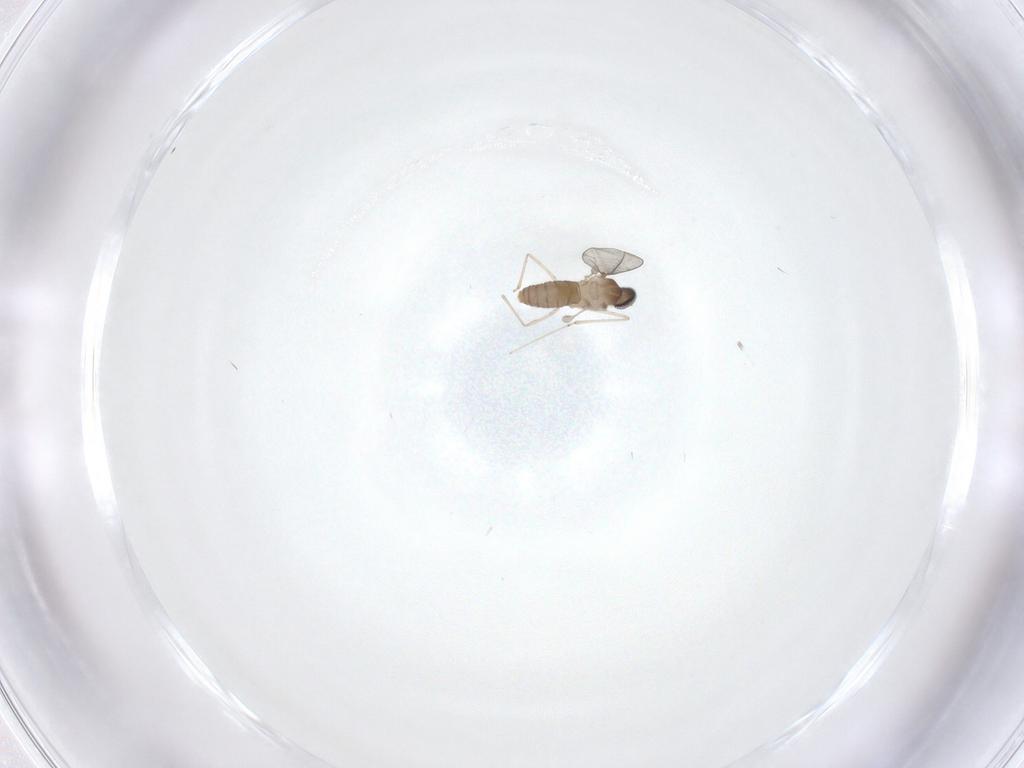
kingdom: Animalia
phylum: Arthropoda
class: Insecta
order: Diptera
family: Cecidomyiidae
